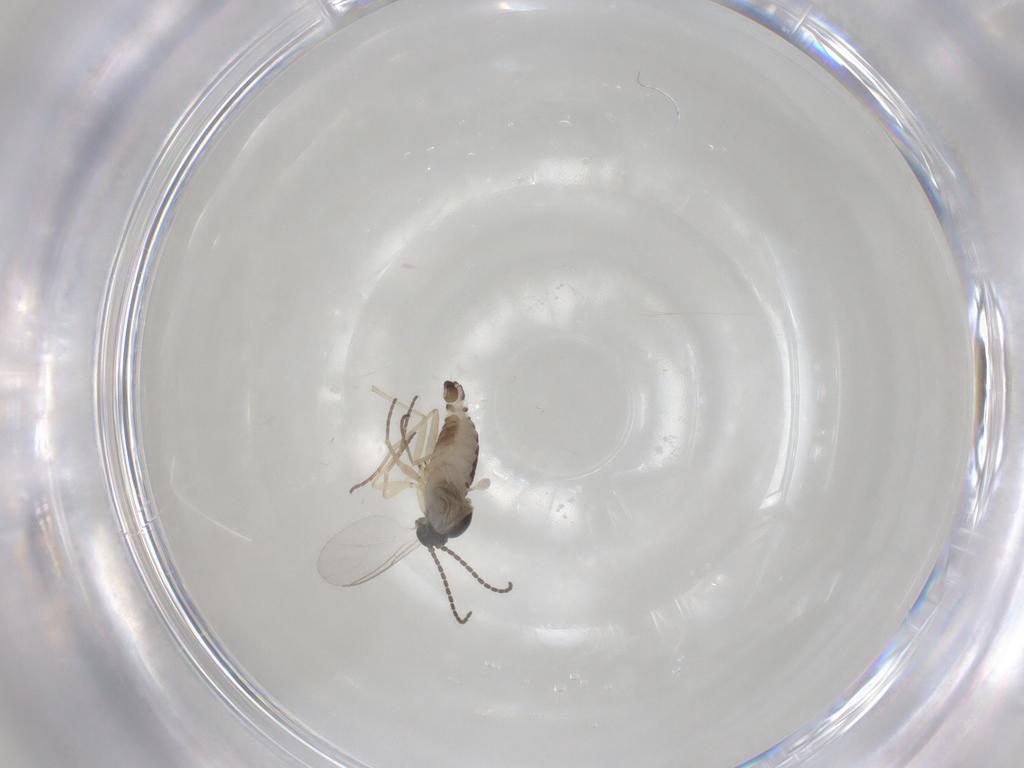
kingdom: Animalia
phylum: Arthropoda
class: Insecta
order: Diptera
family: Sciaridae
